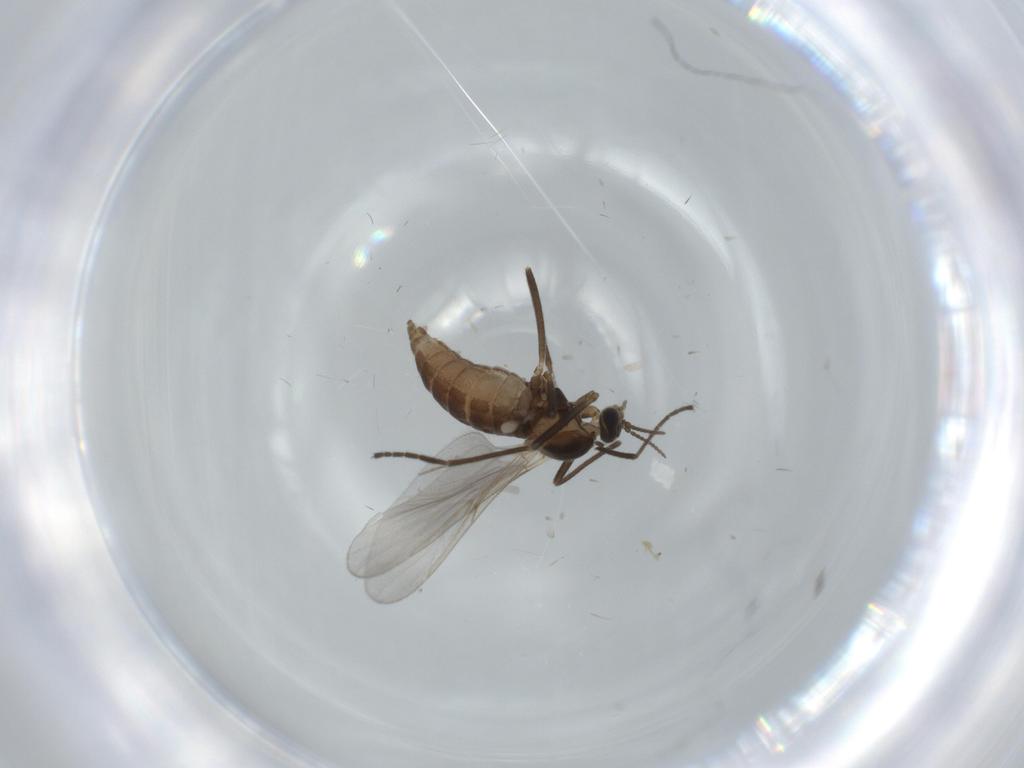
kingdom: Animalia
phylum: Arthropoda
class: Insecta
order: Diptera
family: Cecidomyiidae
